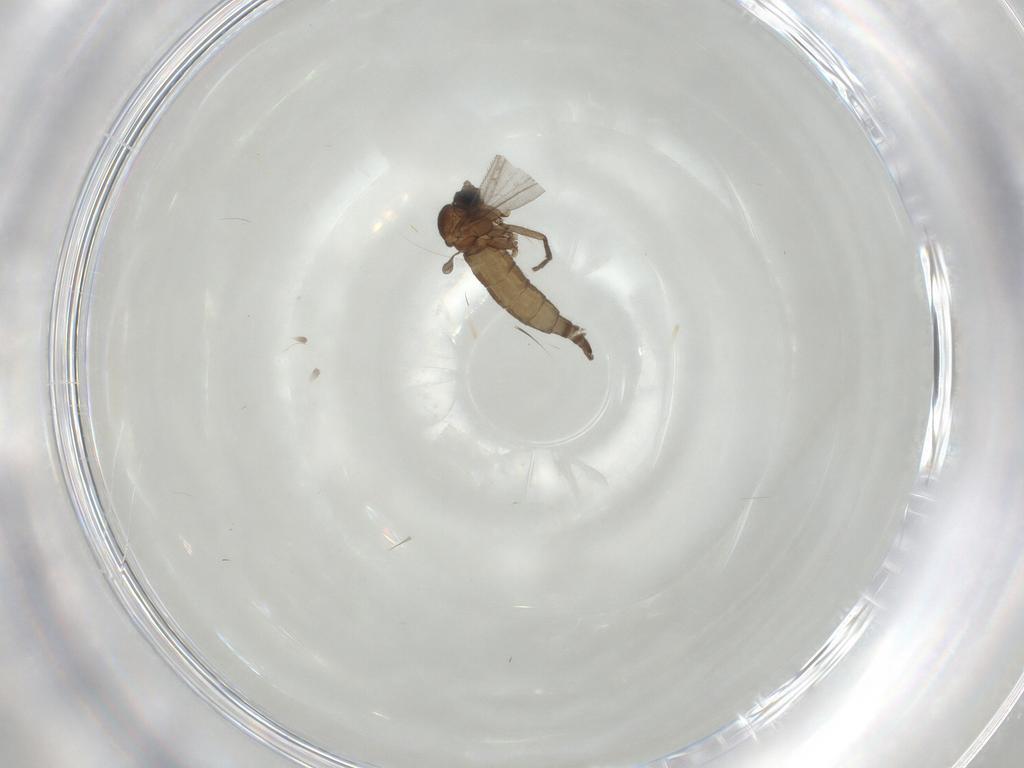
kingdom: Animalia
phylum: Arthropoda
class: Insecta
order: Diptera
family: Sciaridae
